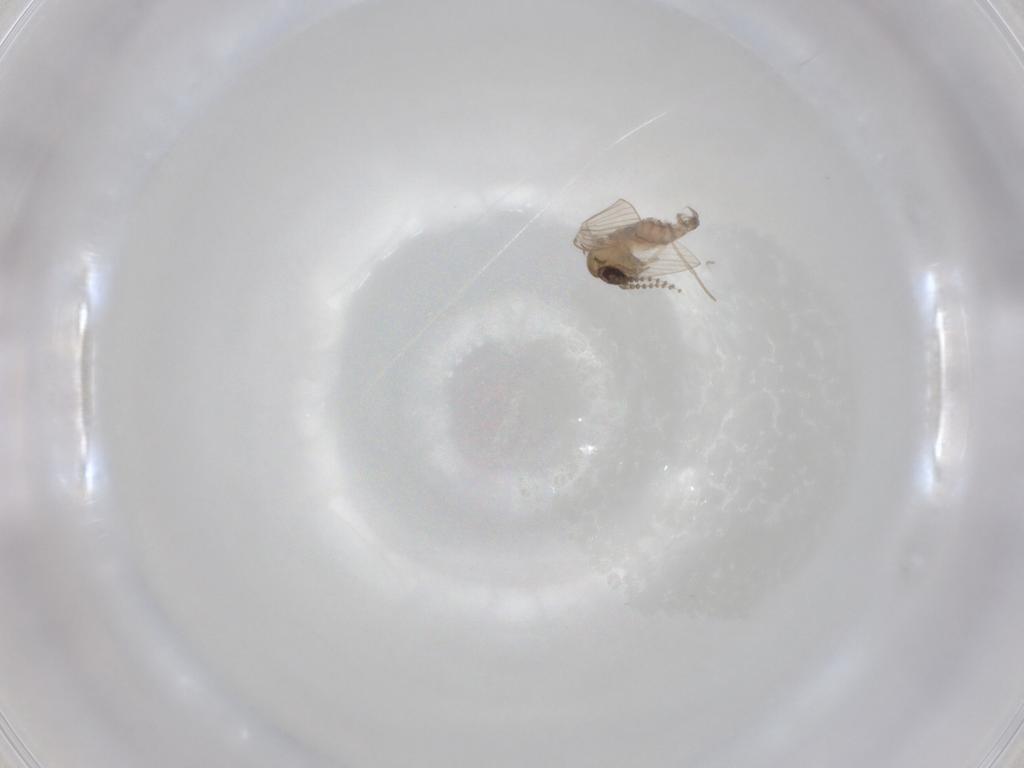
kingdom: Animalia
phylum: Arthropoda
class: Insecta
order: Diptera
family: Psychodidae
